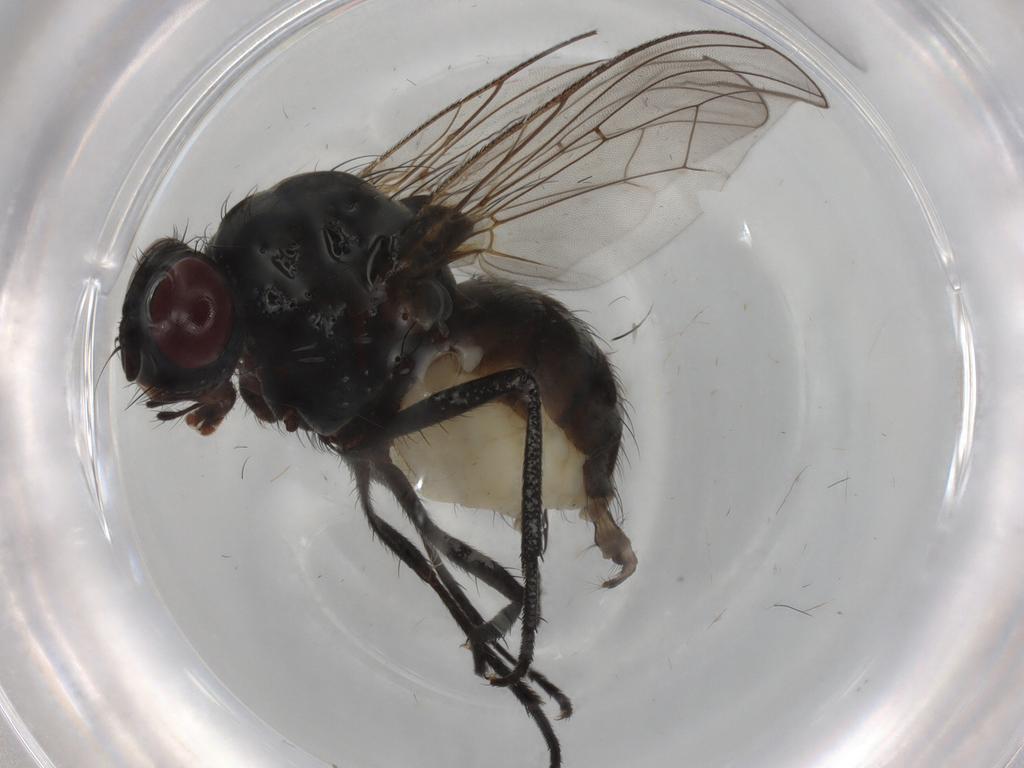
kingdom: Animalia
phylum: Arthropoda
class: Insecta
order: Diptera
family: Anthomyiidae
